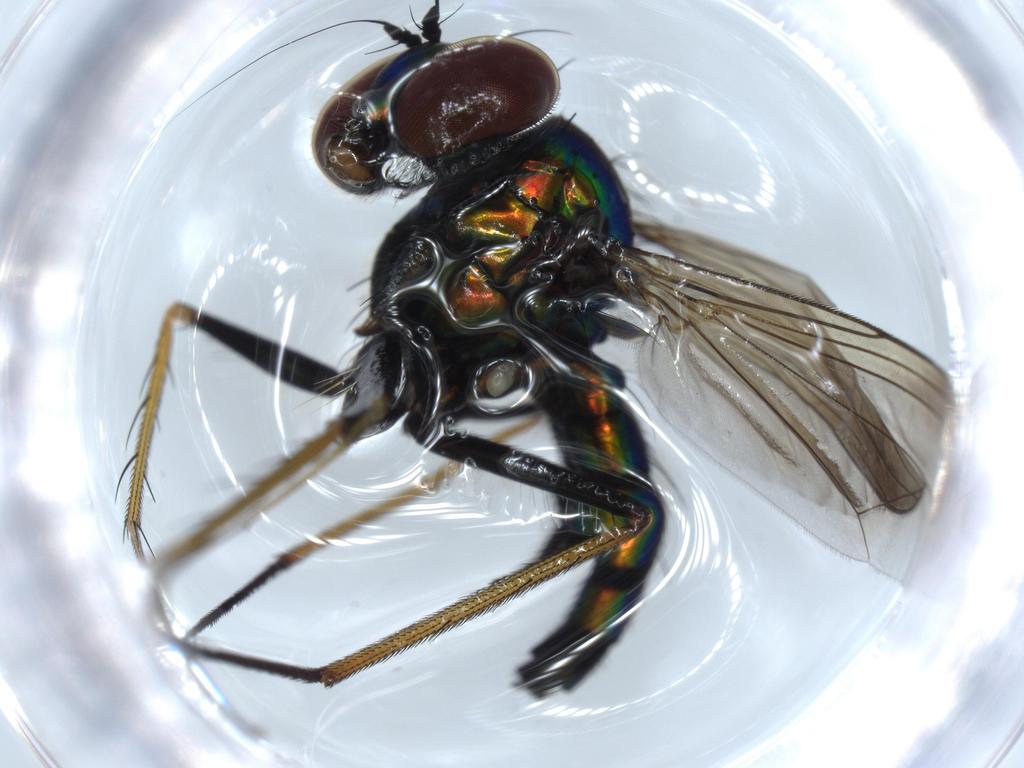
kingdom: Animalia
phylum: Arthropoda
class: Insecta
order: Diptera
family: Dolichopodidae
